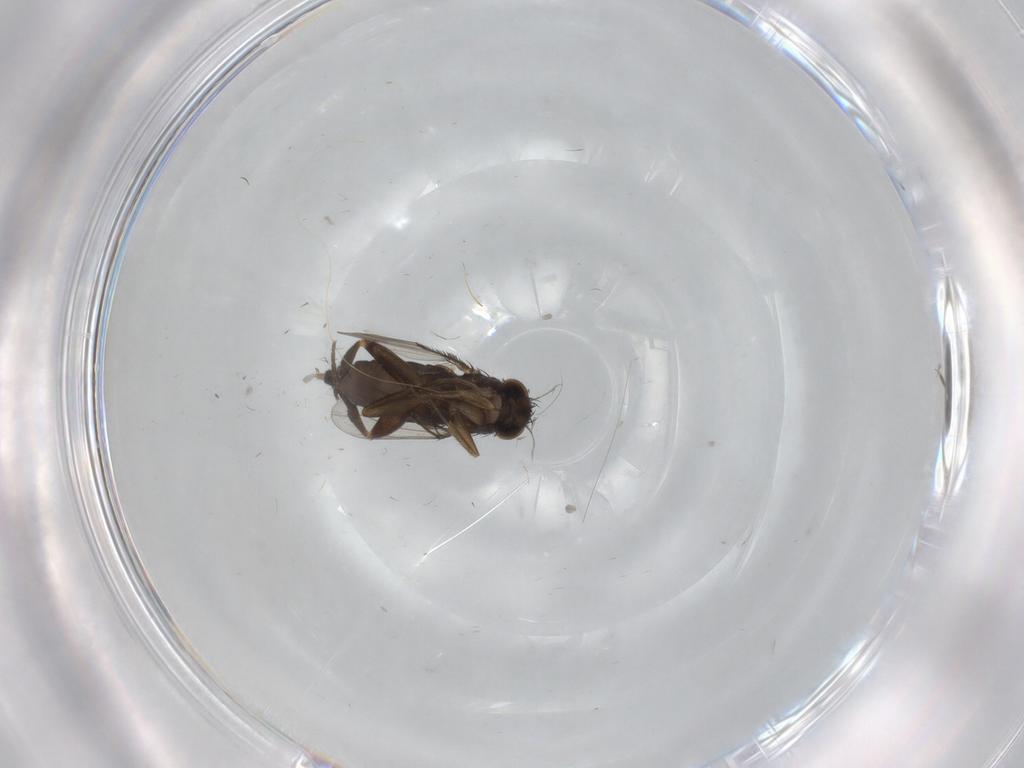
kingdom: Animalia
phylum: Arthropoda
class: Insecta
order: Diptera
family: Phoridae
